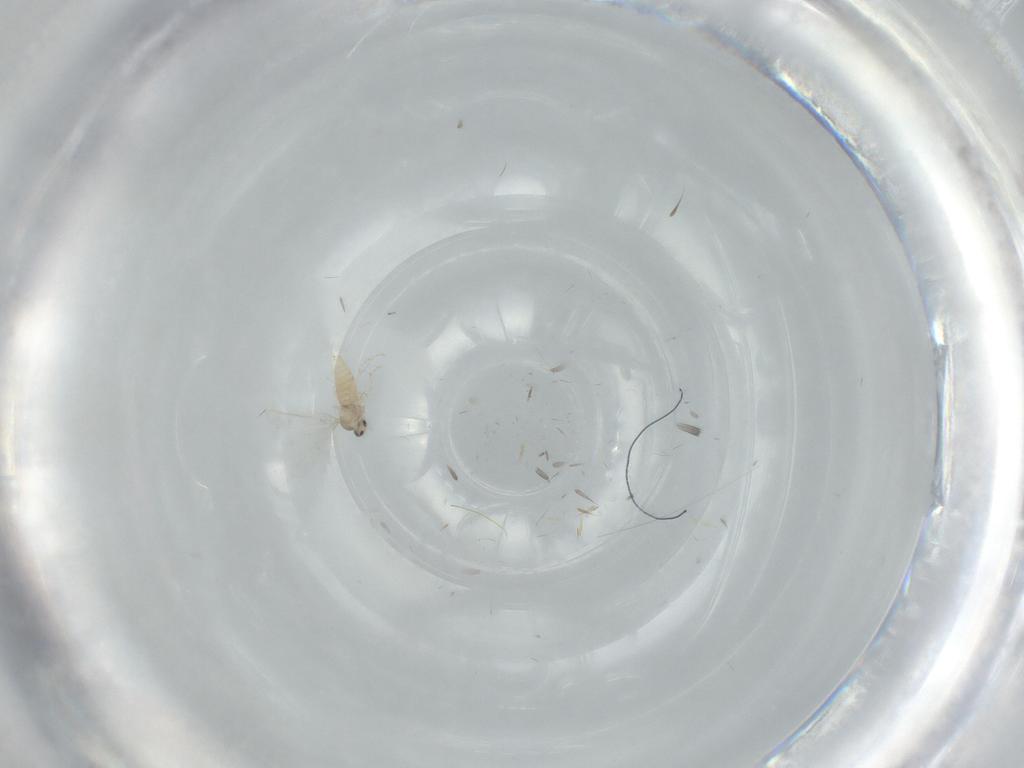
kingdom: Animalia
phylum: Arthropoda
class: Insecta
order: Diptera
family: Cecidomyiidae
